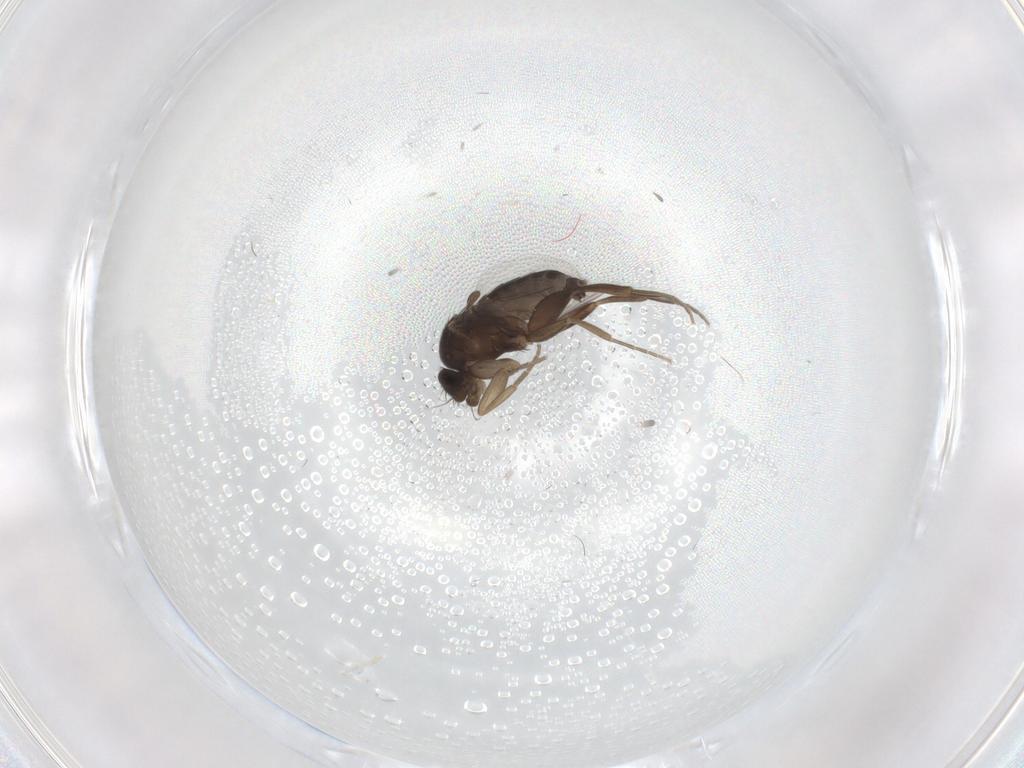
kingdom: Animalia
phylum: Arthropoda
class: Insecta
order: Diptera
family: Phoridae
